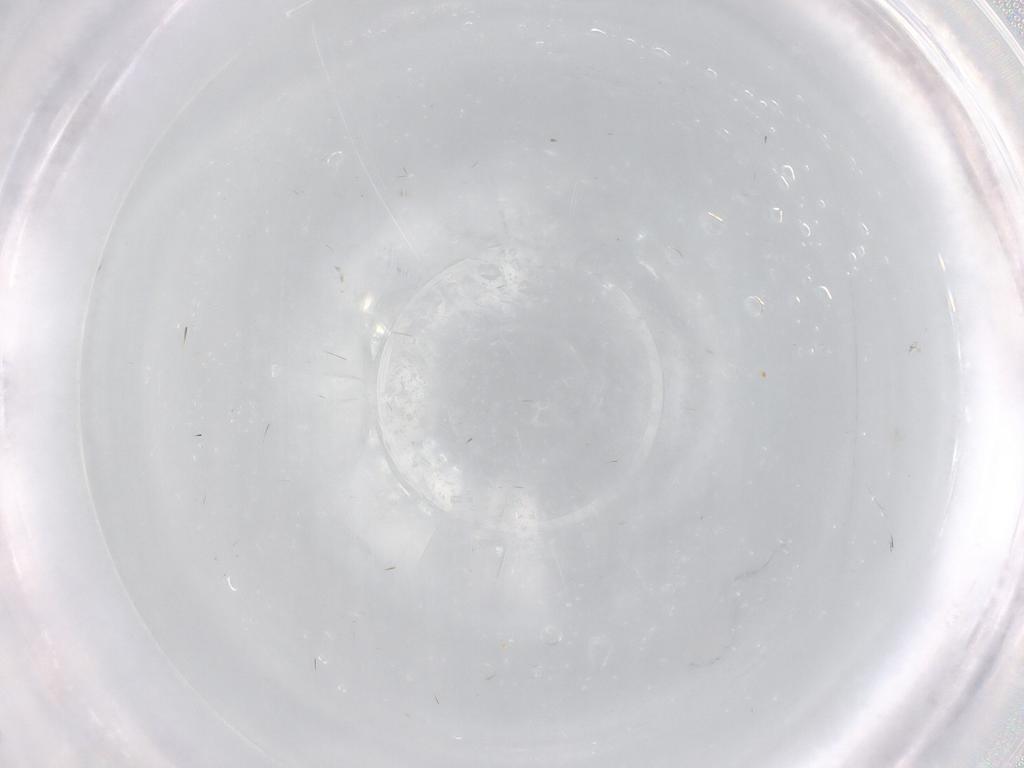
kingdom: Animalia
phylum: Arthropoda
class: Insecta
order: Diptera
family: Cecidomyiidae
